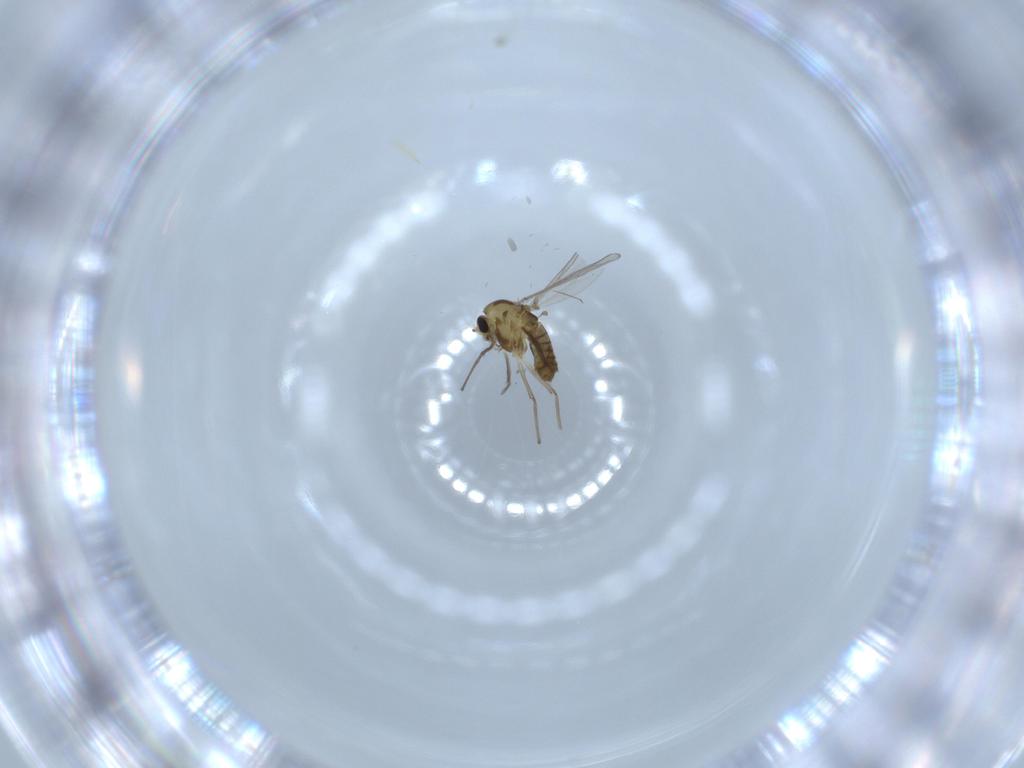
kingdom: Animalia
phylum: Arthropoda
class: Insecta
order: Diptera
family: Chironomidae
